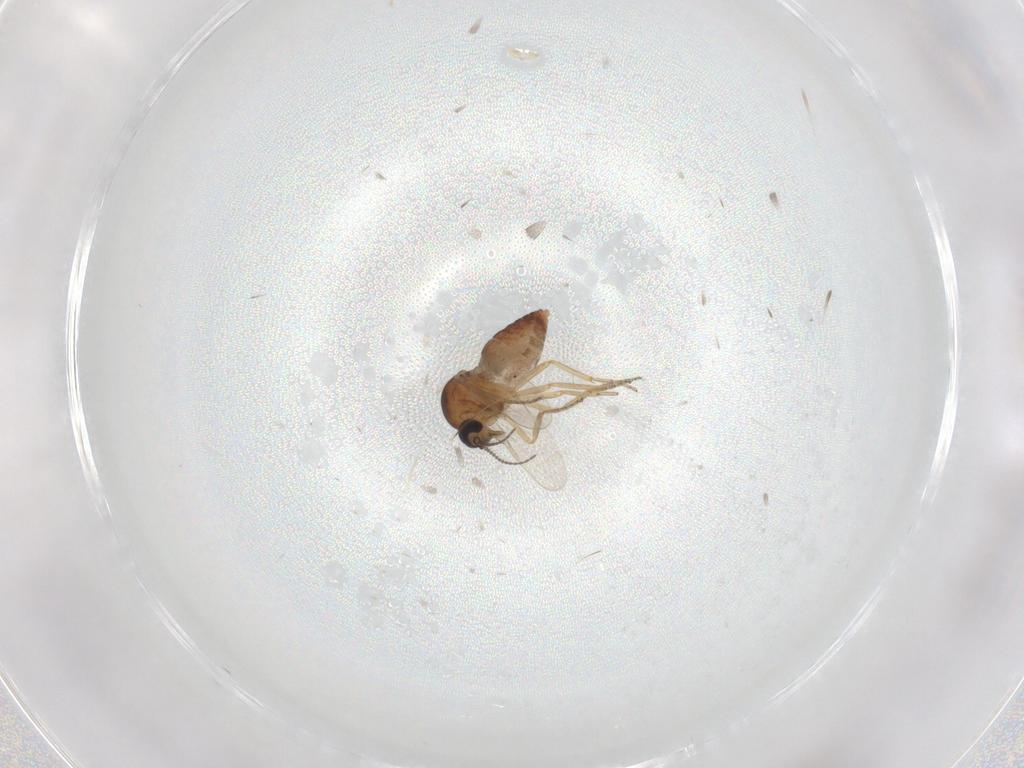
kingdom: Animalia
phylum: Arthropoda
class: Insecta
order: Diptera
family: Ceratopogonidae
